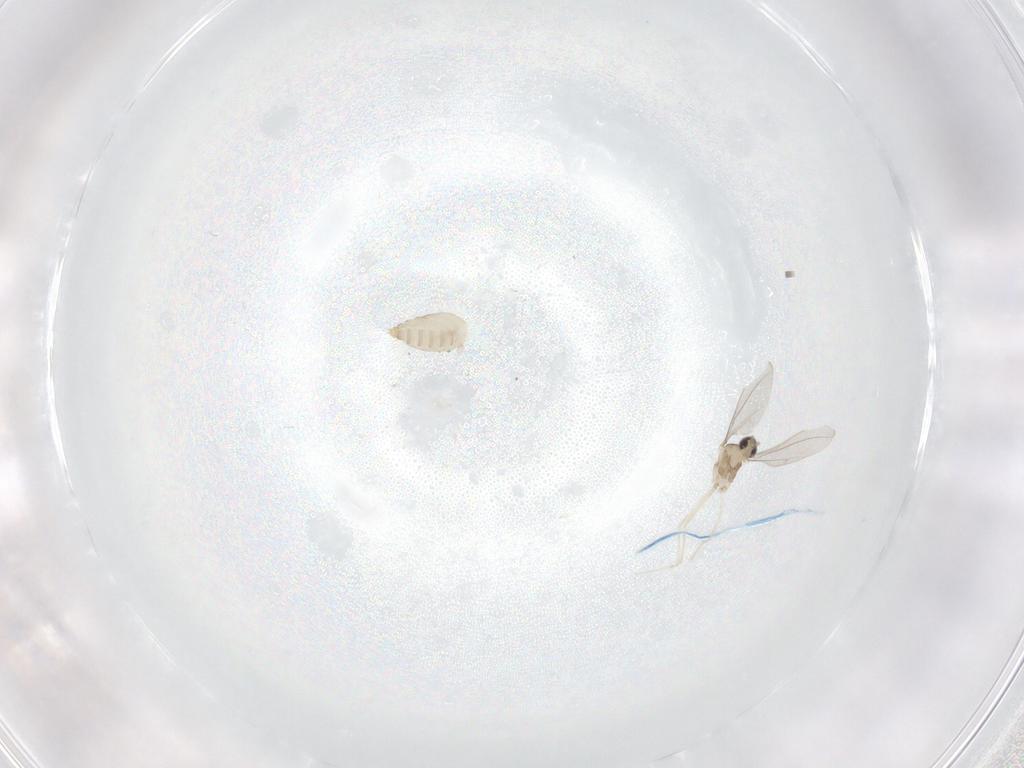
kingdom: Animalia
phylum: Arthropoda
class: Insecta
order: Diptera
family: Cecidomyiidae
